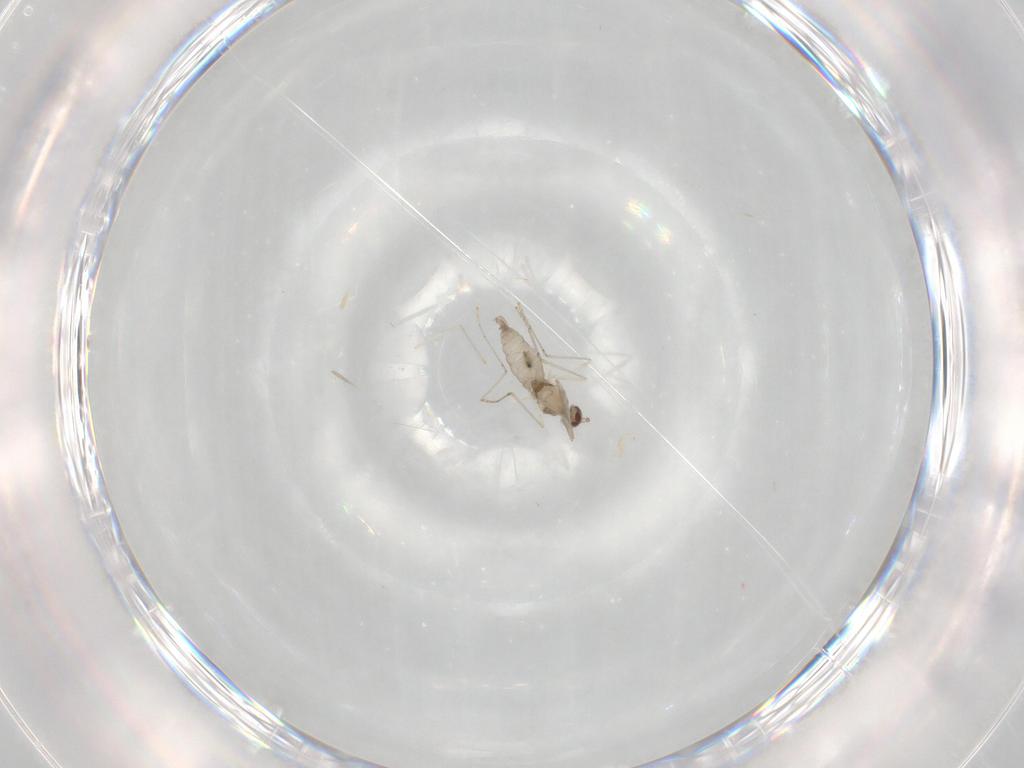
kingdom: Animalia
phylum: Arthropoda
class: Insecta
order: Diptera
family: Cecidomyiidae
